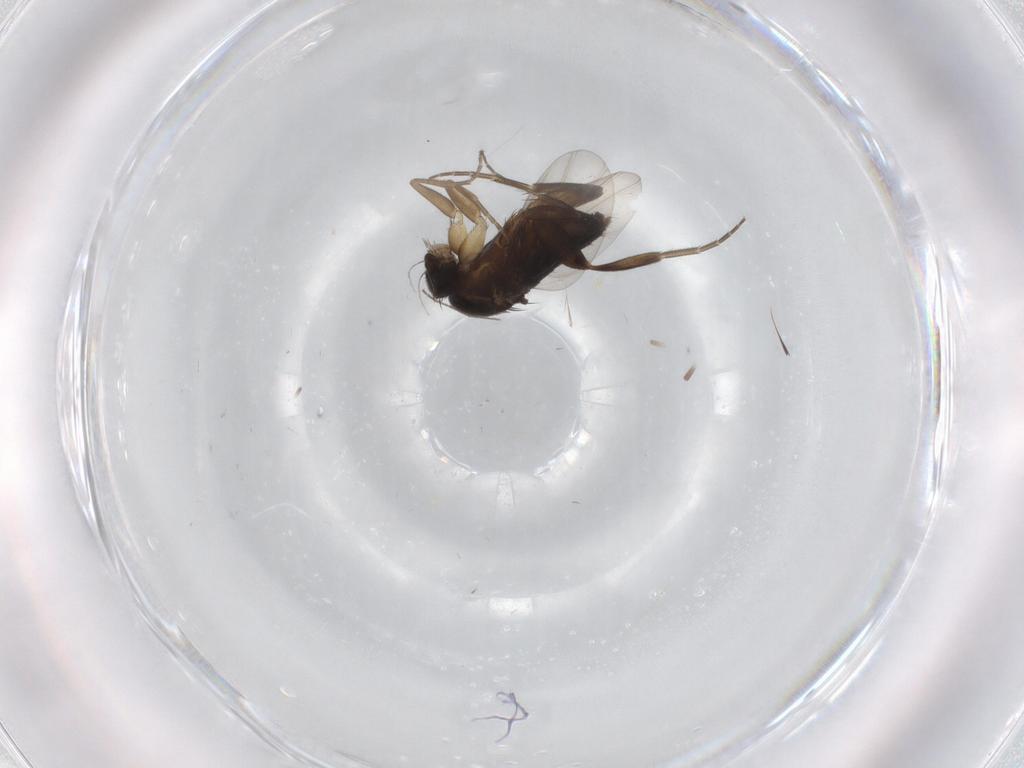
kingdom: Animalia
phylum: Arthropoda
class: Insecta
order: Diptera
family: Phoridae
